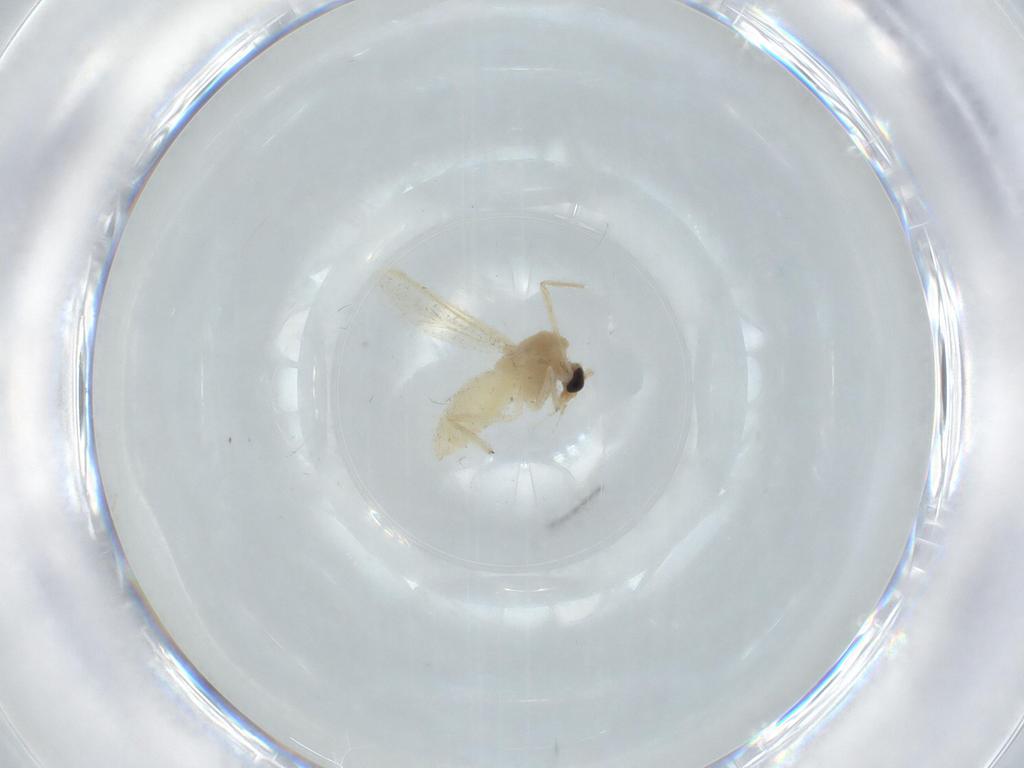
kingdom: Animalia
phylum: Arthropoda
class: Insecta
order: Diptera
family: Chironomidae
